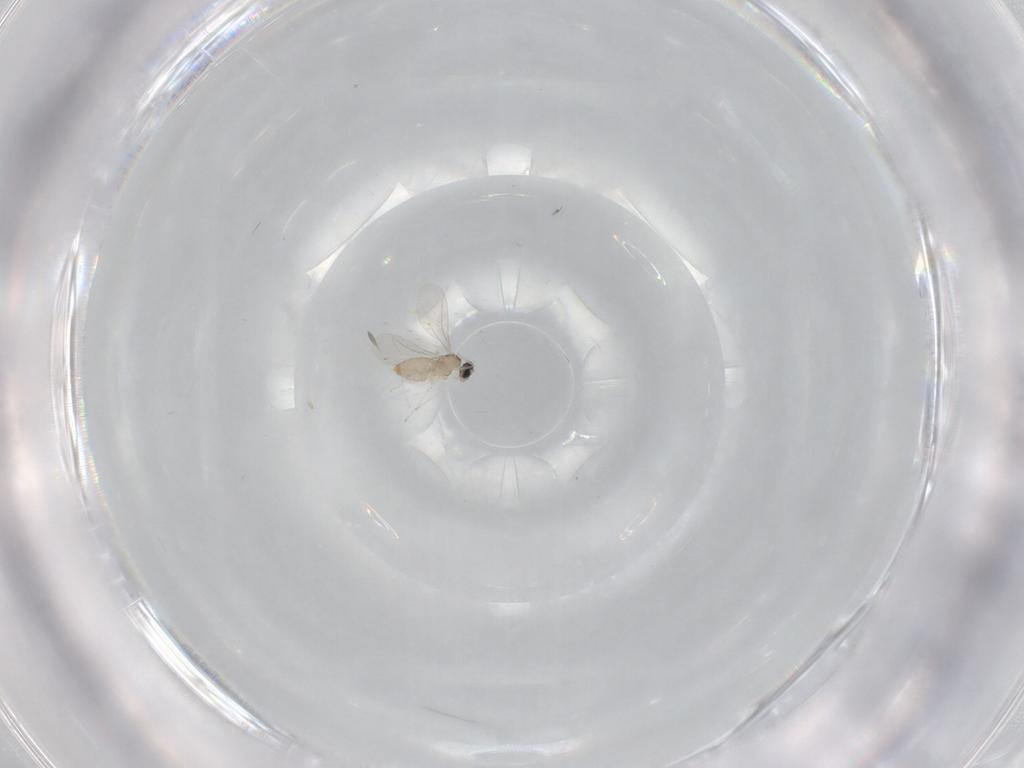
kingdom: Animalia
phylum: Arthropoda
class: Insecta
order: Diptera
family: Cecidomyiidae
